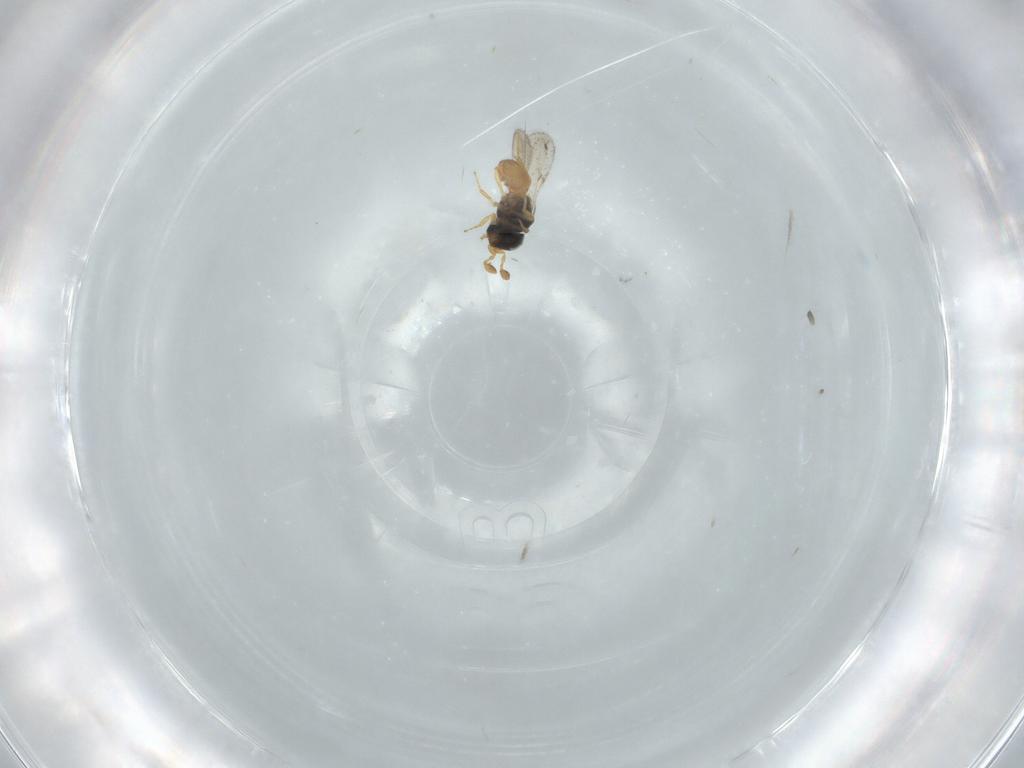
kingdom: Animalia
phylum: Arthropoda
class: Insecta
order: Hymenoptera
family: Scelionidae
